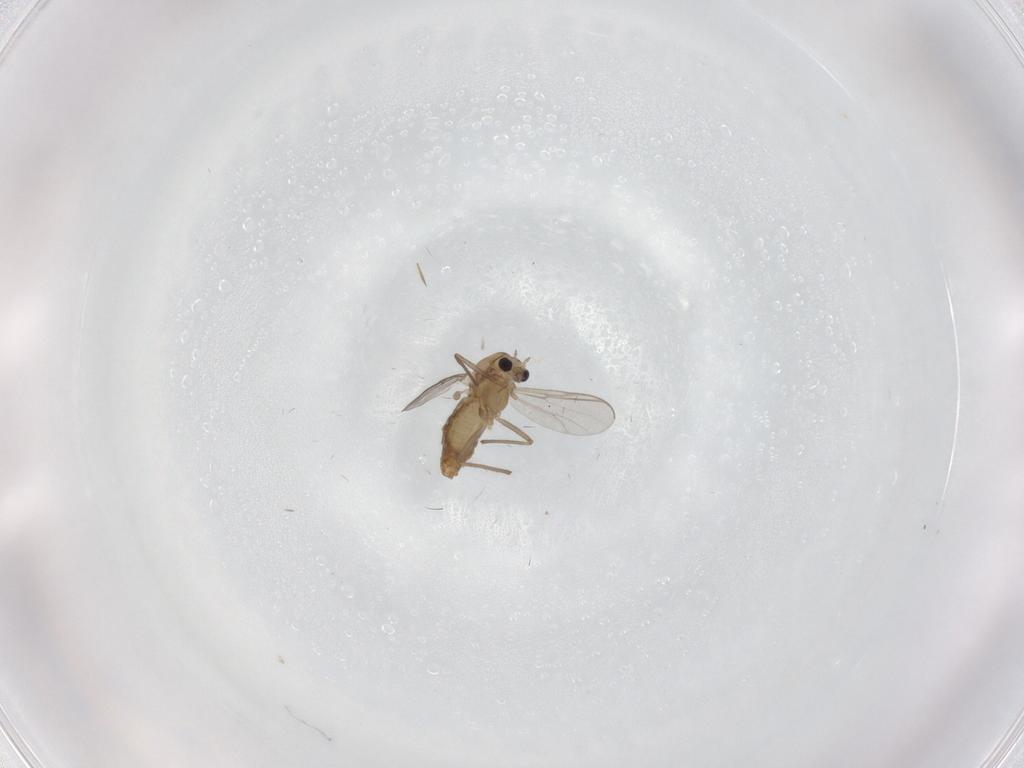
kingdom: Animalia
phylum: Arthropoda
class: Insecta
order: Diptera
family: Chironomidae
